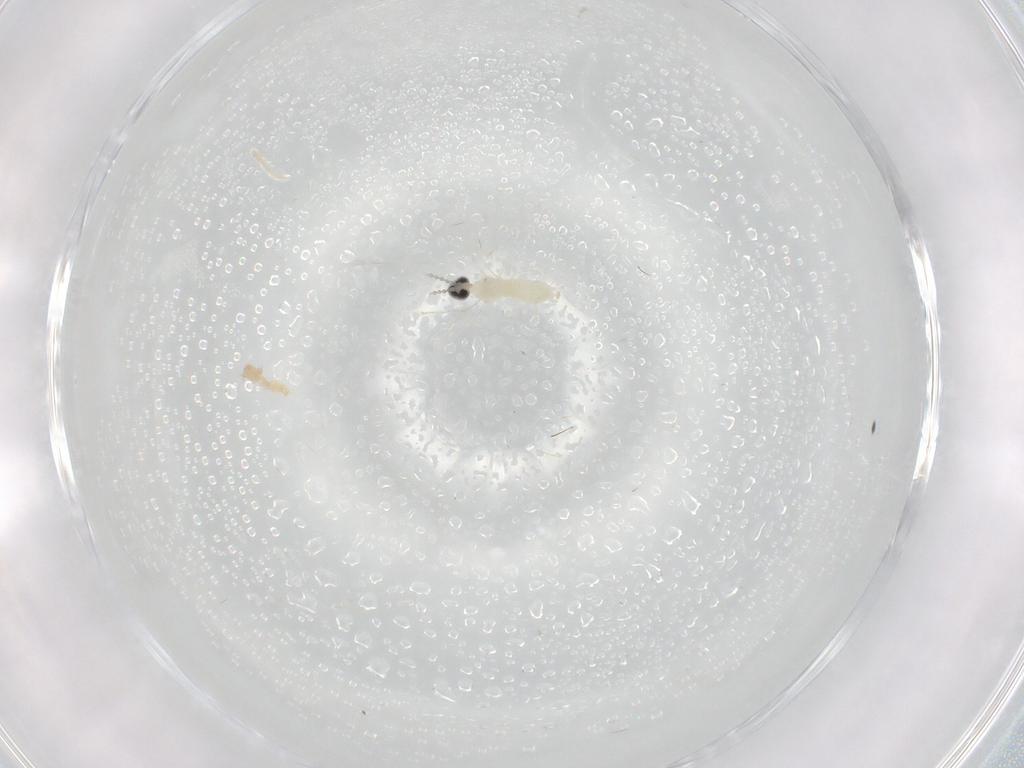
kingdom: Animalia
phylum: Arthropoda
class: Insecta
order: Diptera
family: Cecidomyiidae
